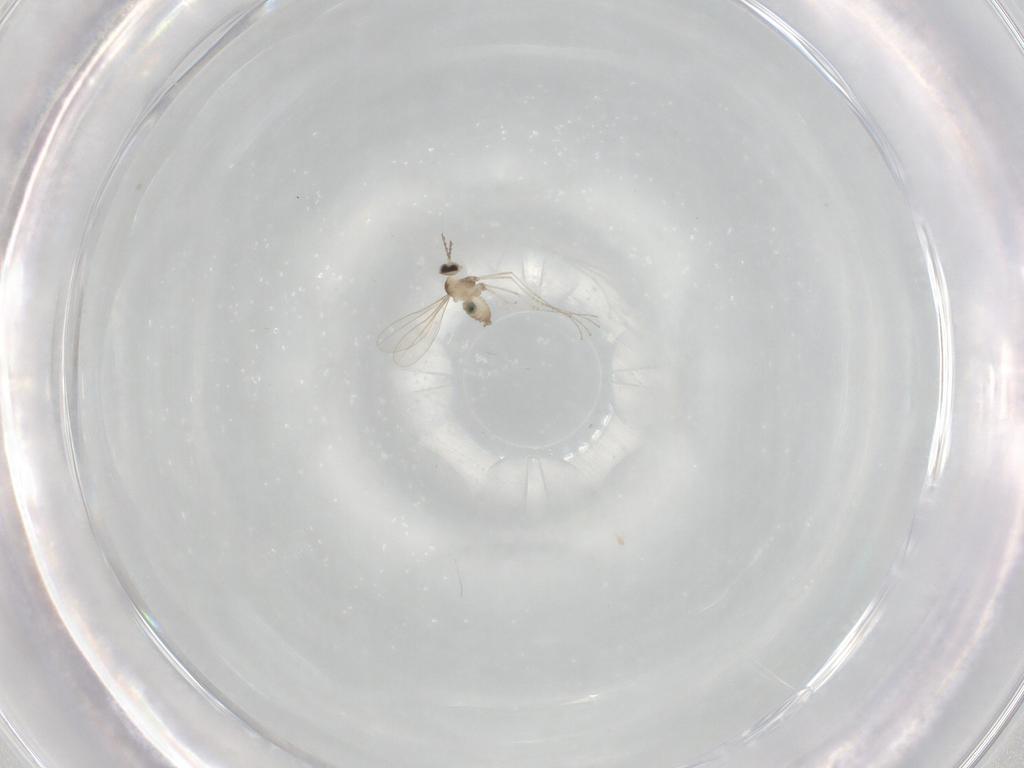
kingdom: Animalia
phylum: Arthropoda
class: Insecta
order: Diptera
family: Cecidomyiidae
